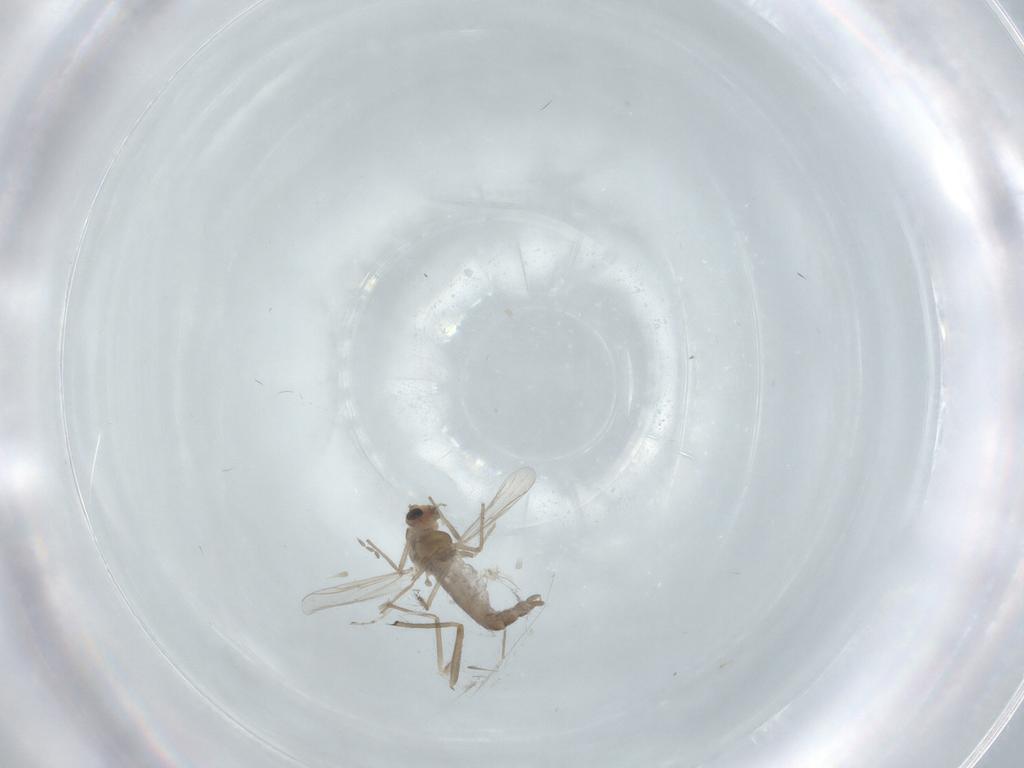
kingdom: Animalia
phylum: Arthropoda
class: Insecta
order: Diptera
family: Chironomidae
